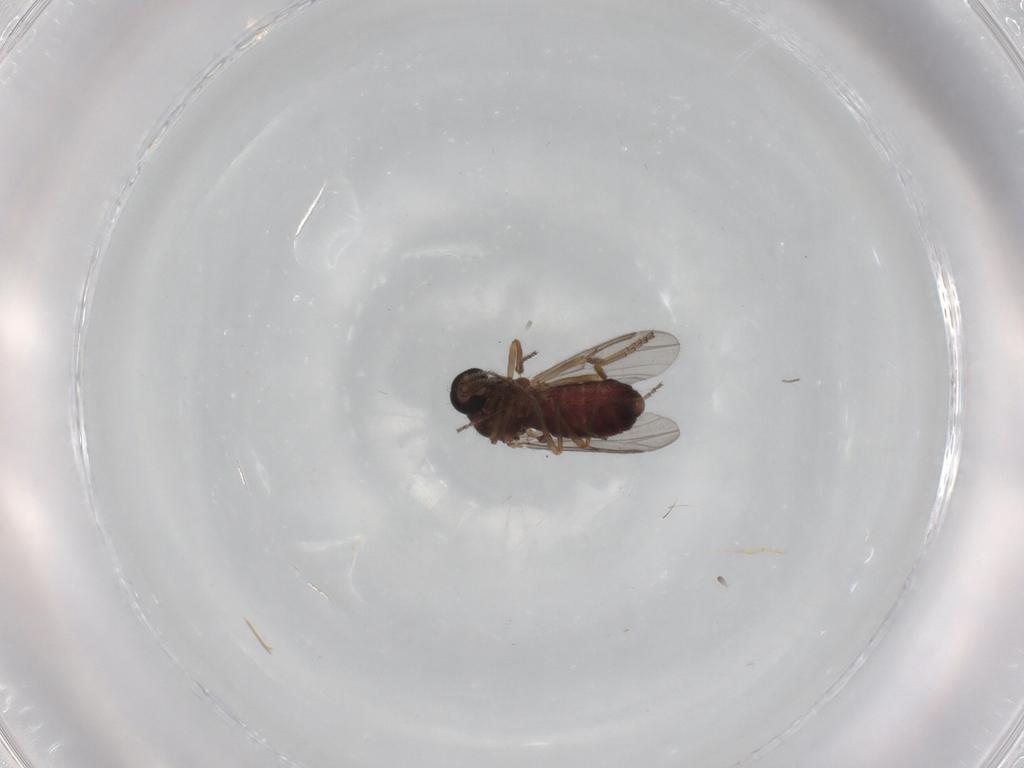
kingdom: Animalia
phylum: Arthropoda
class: Insecta
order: Diptera
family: Ceratopogonidae
